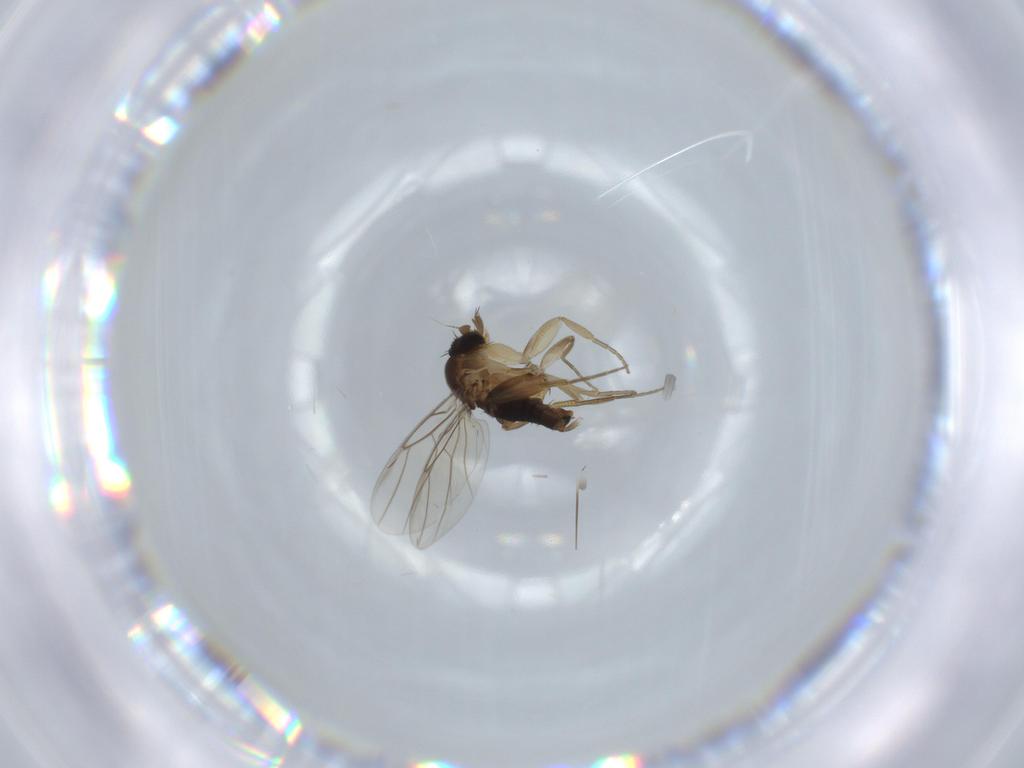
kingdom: Animalia
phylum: Arthropoda
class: Insecta
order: Diptera
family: Phoridae
